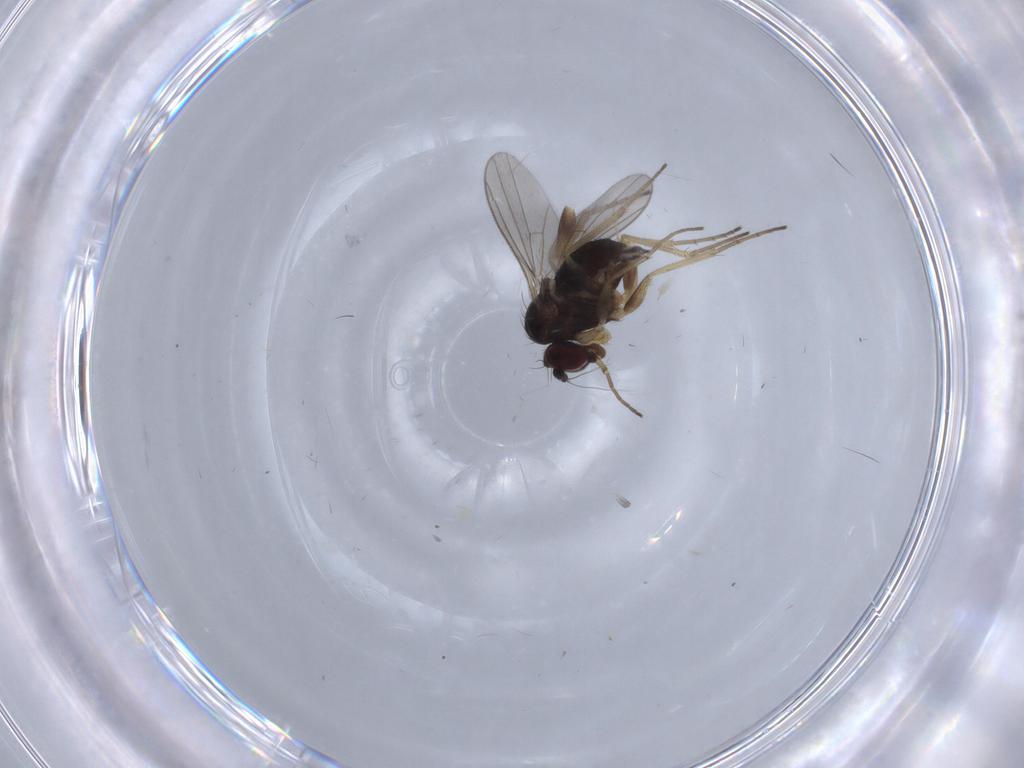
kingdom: Animalia
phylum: Arthropoda
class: Insecta
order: Diptera
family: Dolichopodidae
